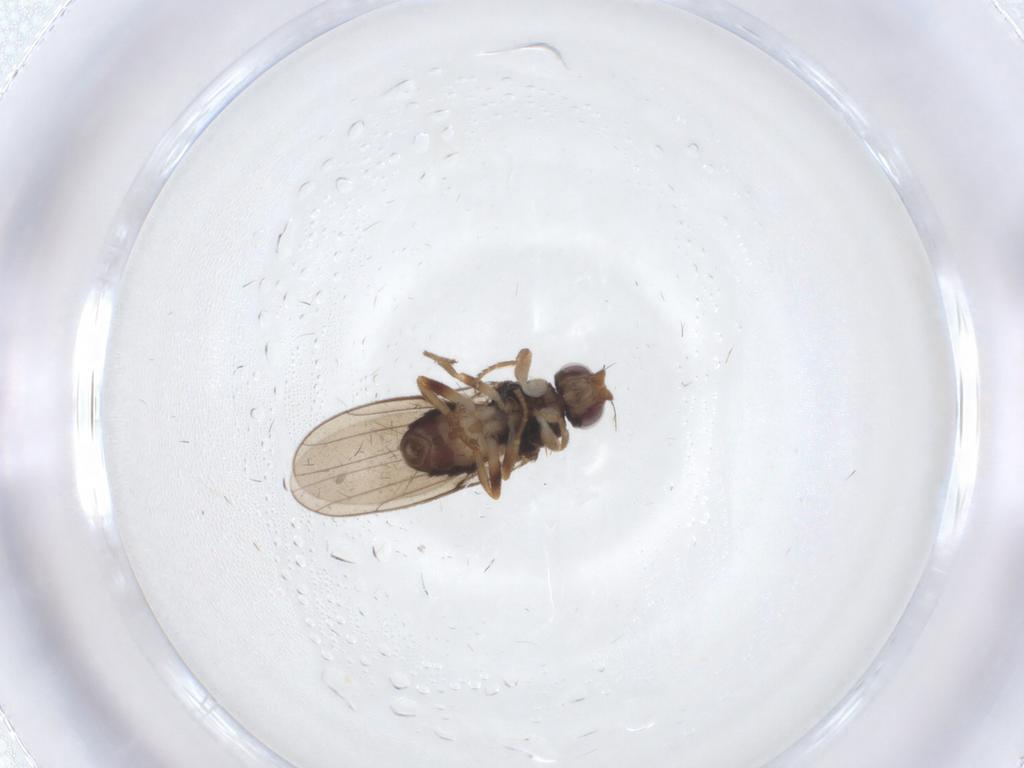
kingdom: Animalia
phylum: Arthropoda
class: Insecta
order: Diptera
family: Chloropidae
